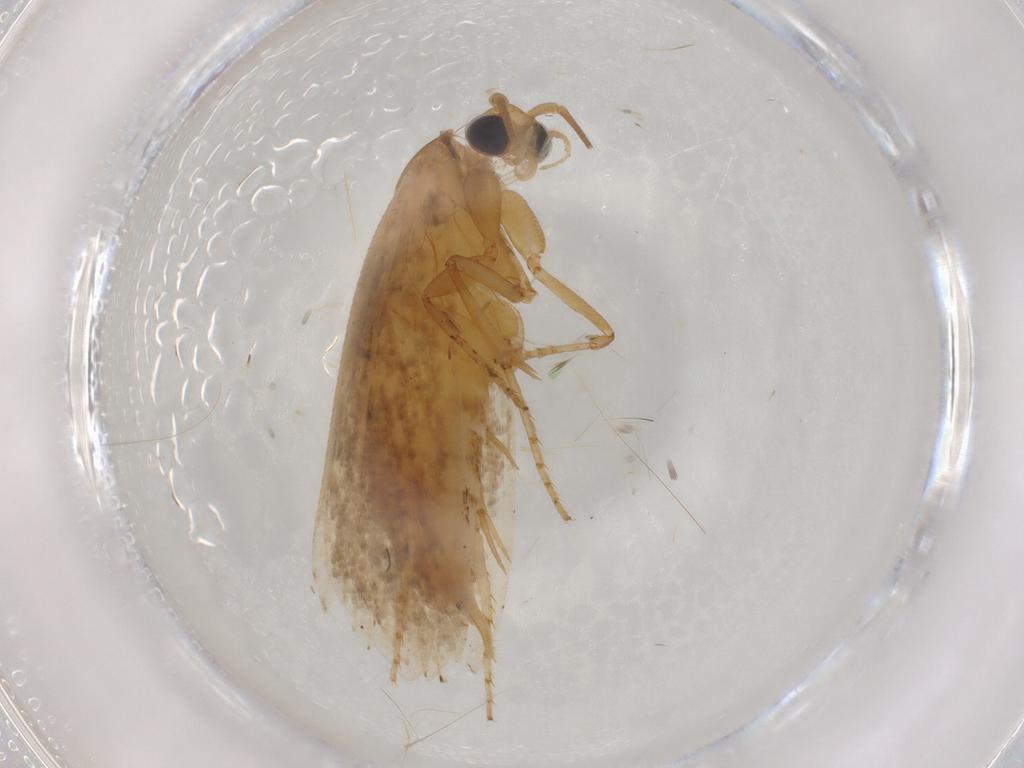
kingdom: Animalia
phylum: Arthropoda
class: Insecta
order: Lepidoptera
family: Tineidae
